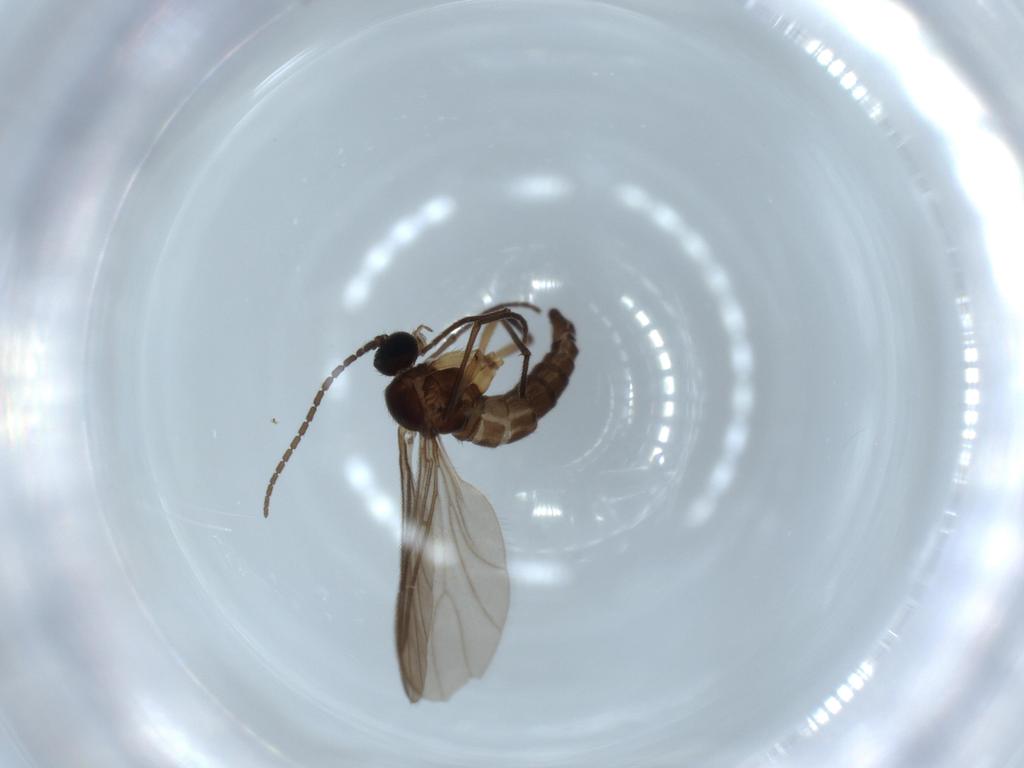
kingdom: Animalia
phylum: Arthropoda
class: Insecta
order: Diptera
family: Sciaridae
